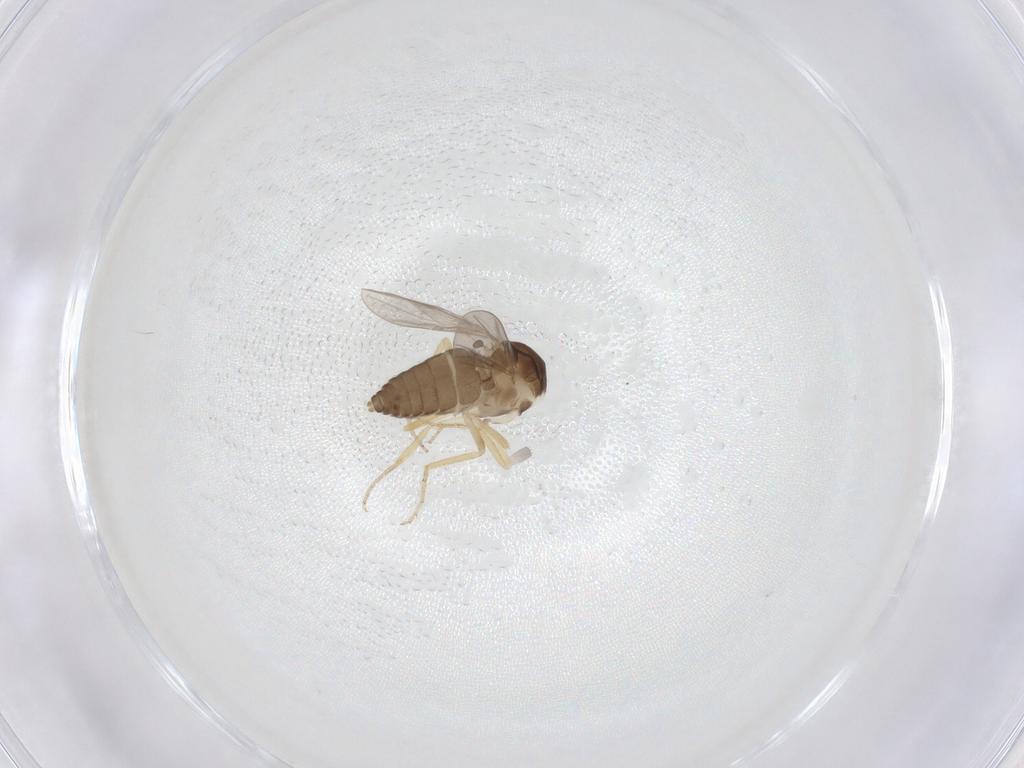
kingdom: Animalia
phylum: Arthropoda
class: Insecta
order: Diptera
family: Ceratopogonidae
